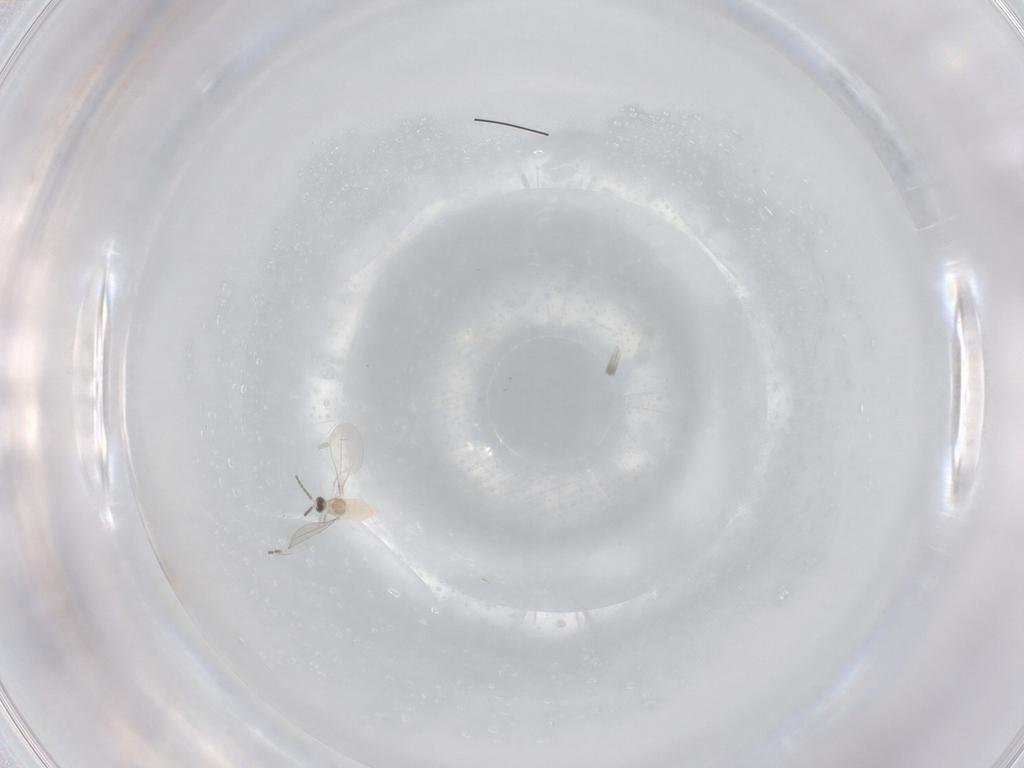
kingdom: Animalia
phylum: Arthropoda
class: Insecta
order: Diptera
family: Cecidomyiidae
